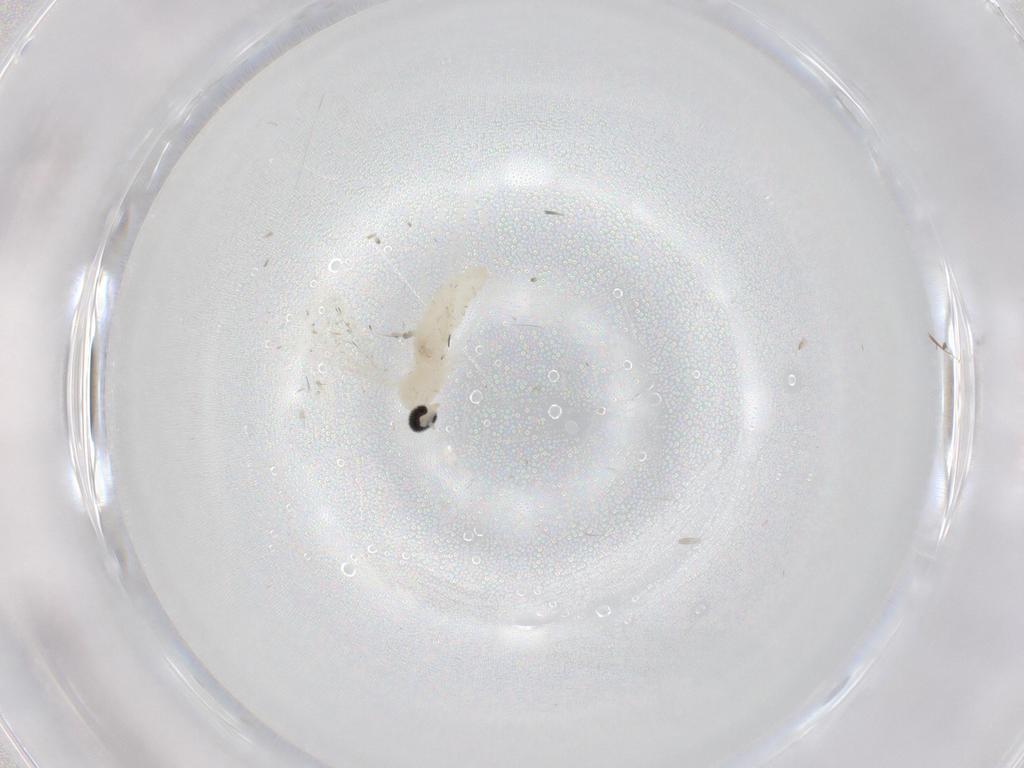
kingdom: Animalia
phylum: Arthropoda
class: Insecta
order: Diptera
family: Cecidomyiidae
